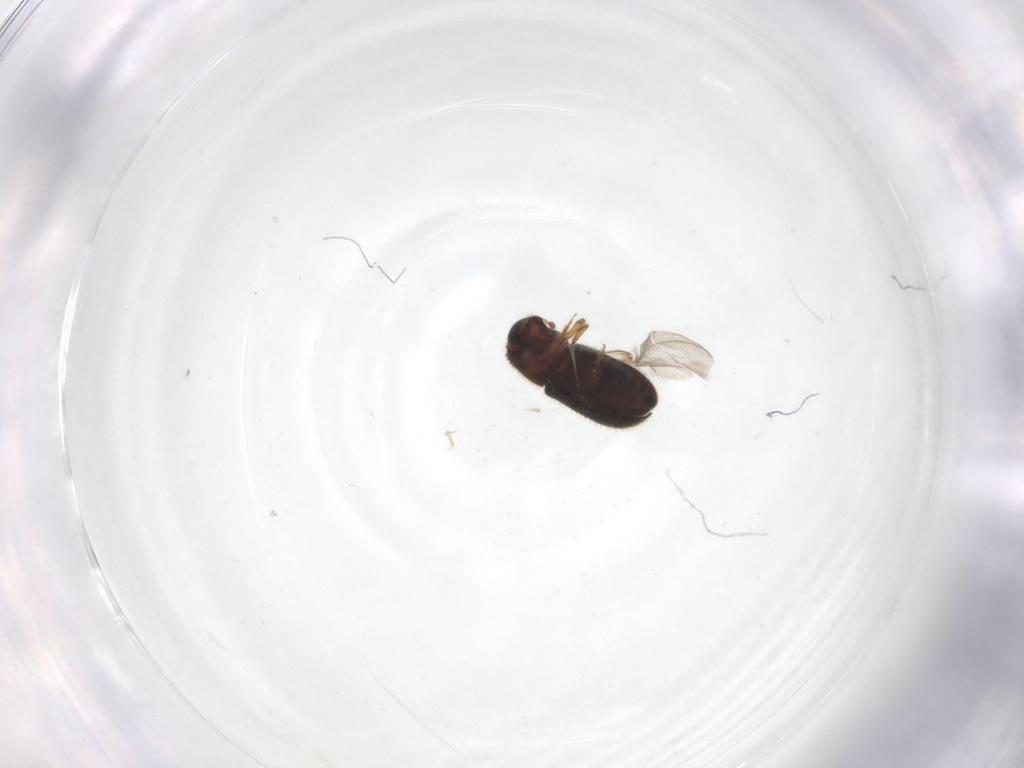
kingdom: Animalia
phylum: Arthropoda
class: Insecta
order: Coleoptera
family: Curculionidae
